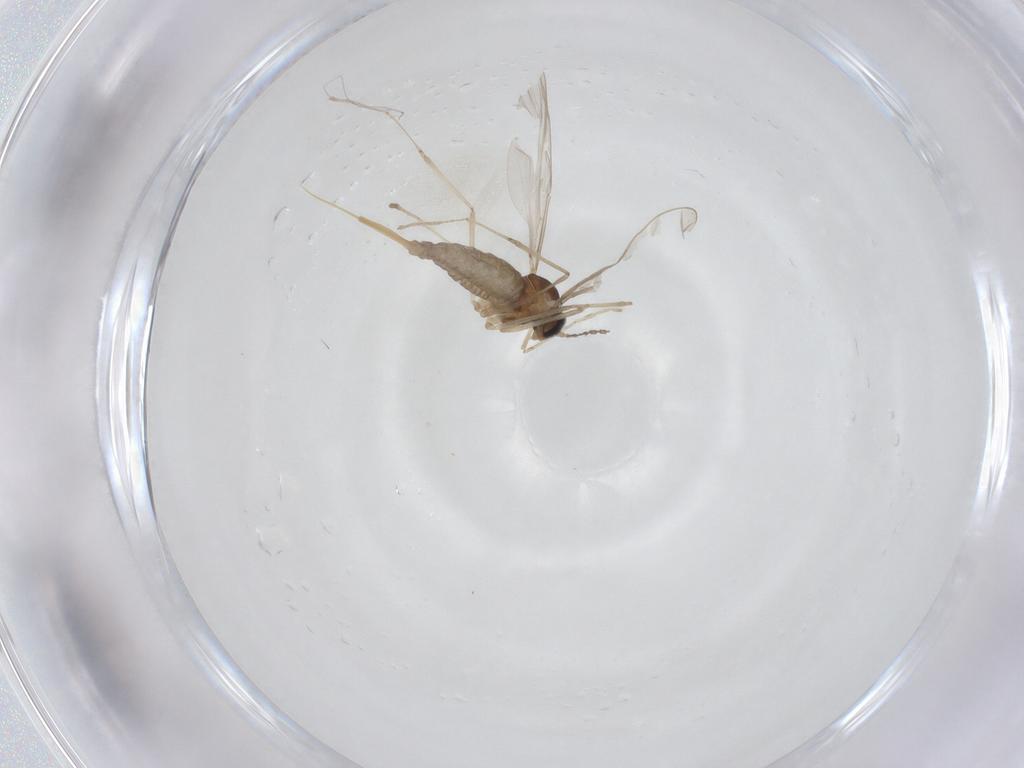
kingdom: Animalia
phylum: Arthropoda
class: Insecta
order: Diptera
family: Cecidomyiidae
